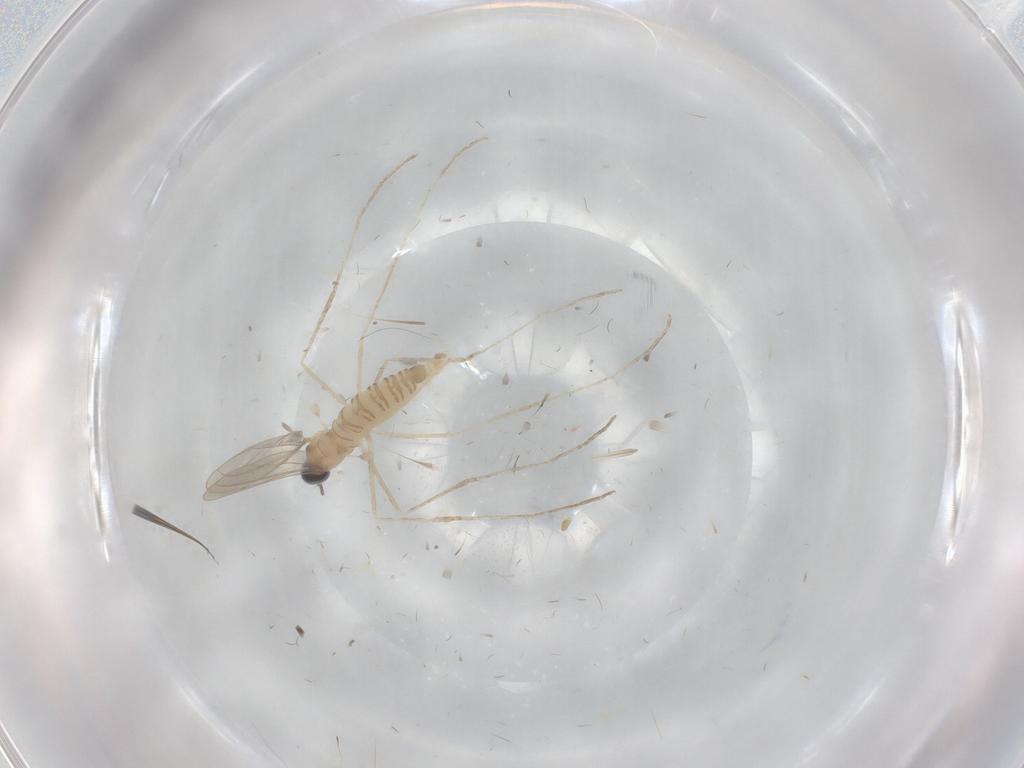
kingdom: Animalia
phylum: Arthropoda
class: Insecta
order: Diptera
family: Cecidomyiidae
